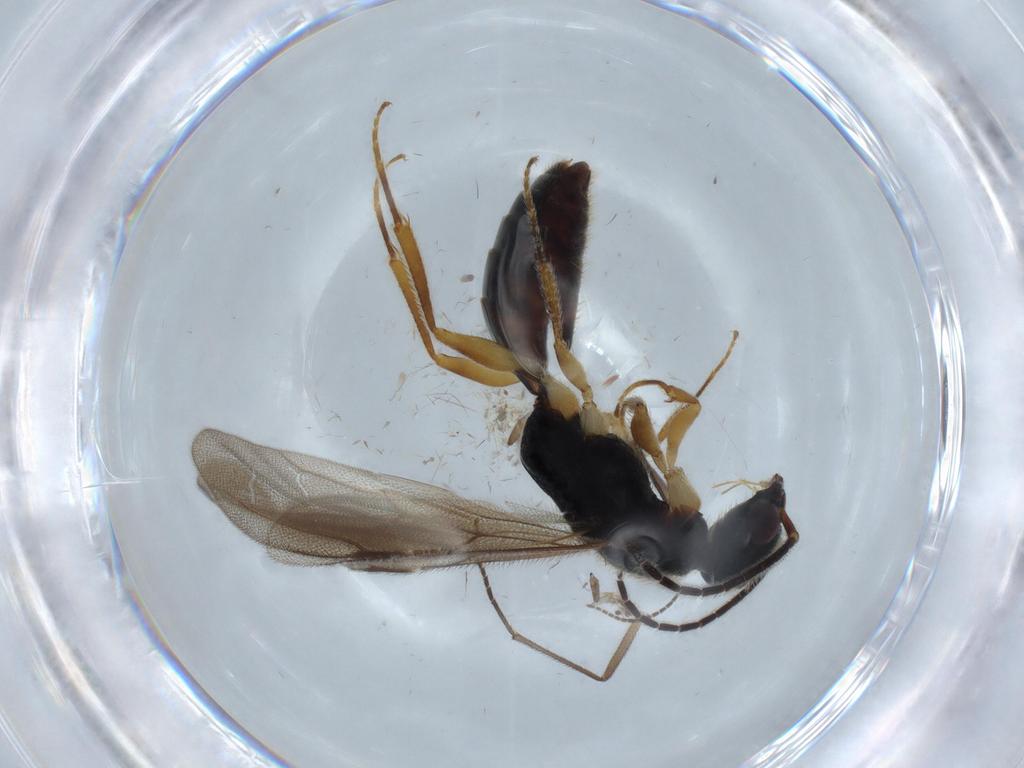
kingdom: Animalia
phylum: Arthropoda
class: Insecta
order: Hymenoptera
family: Bethylidae
